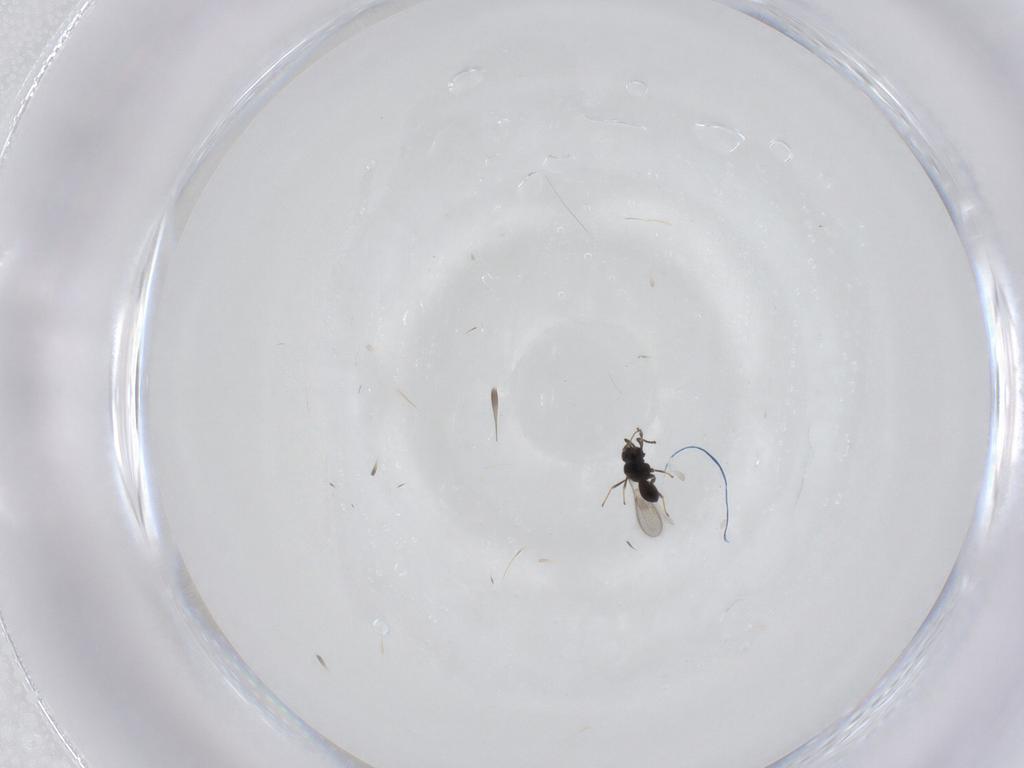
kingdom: Animalia
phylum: Arthropoda
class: Insecta
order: Hymenoptera
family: Scelionidae
